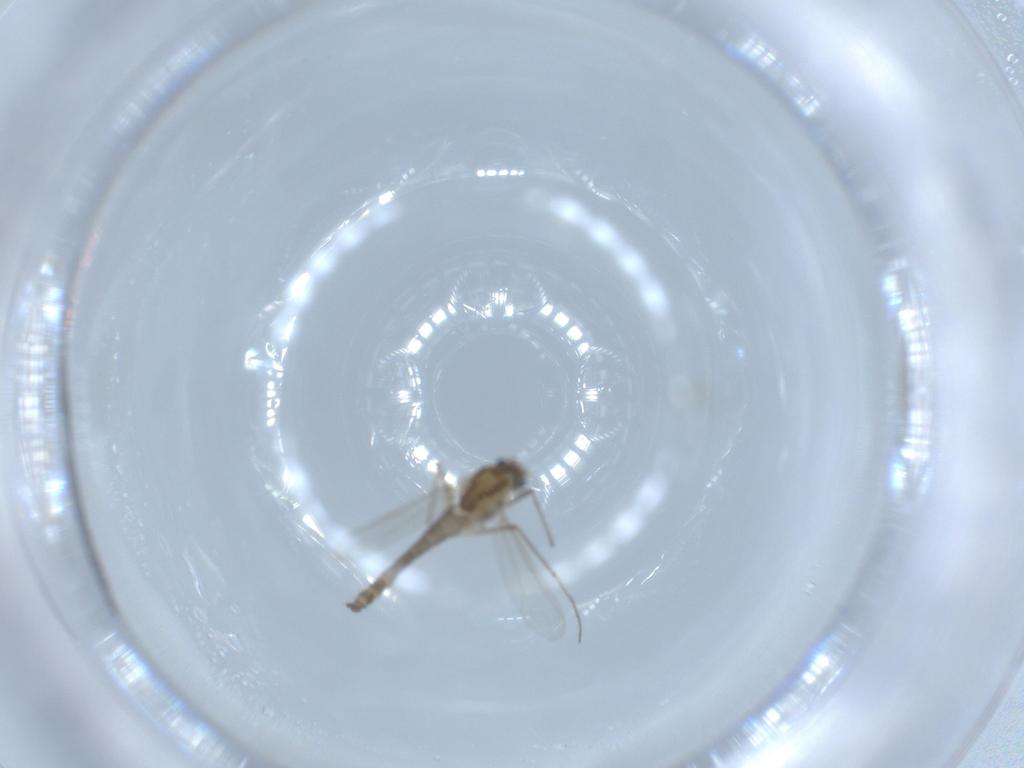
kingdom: Animalia
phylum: Arthropoda
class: Insecta
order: Diptera
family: Chironomidae
